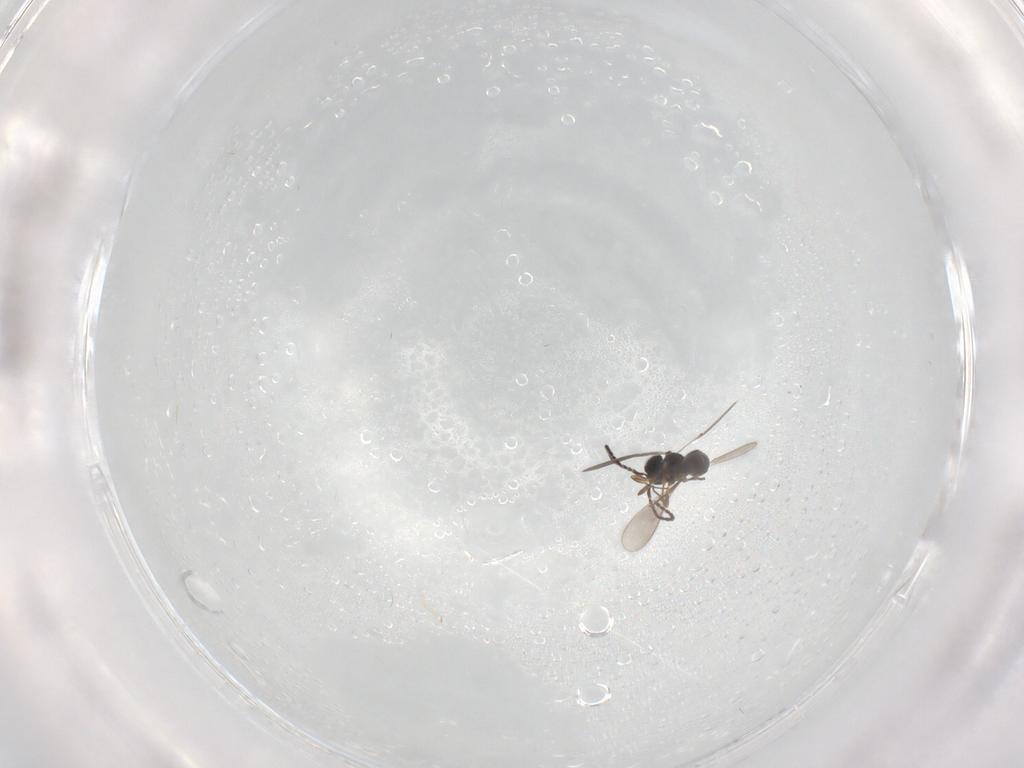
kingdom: Animalia
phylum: Arthropoda
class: Insecta
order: Hymenoptera
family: Scelionidae
